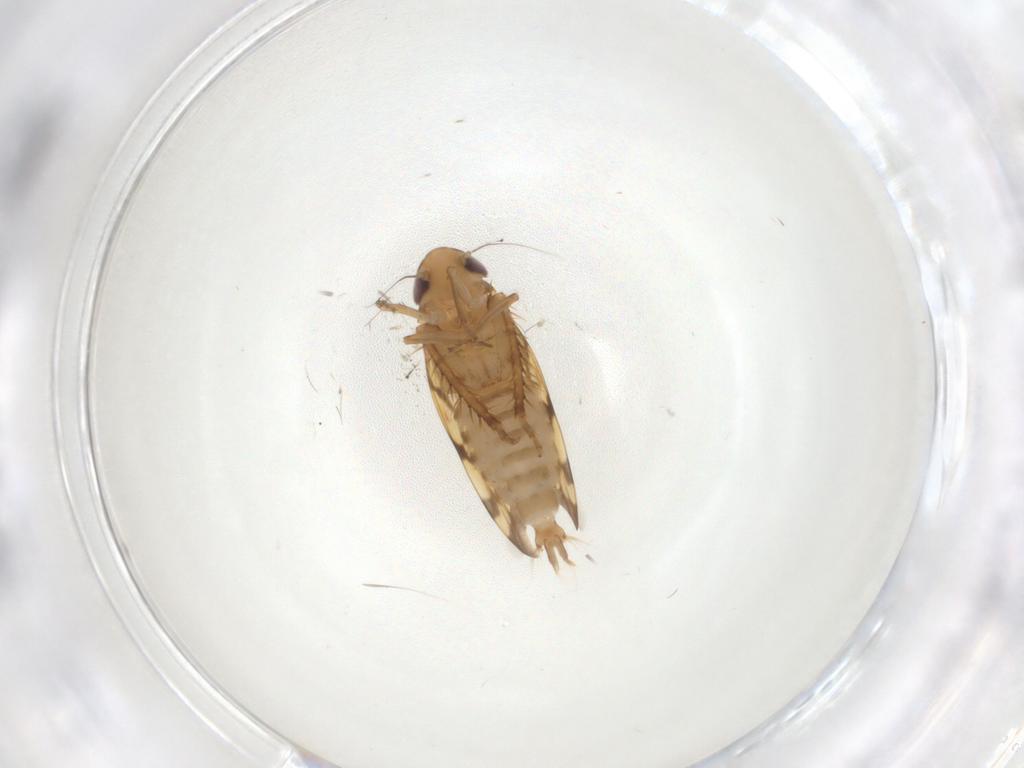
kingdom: Animalia
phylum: Arthropoda
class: Insecta
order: Hemiptera
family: Cicadellidae
